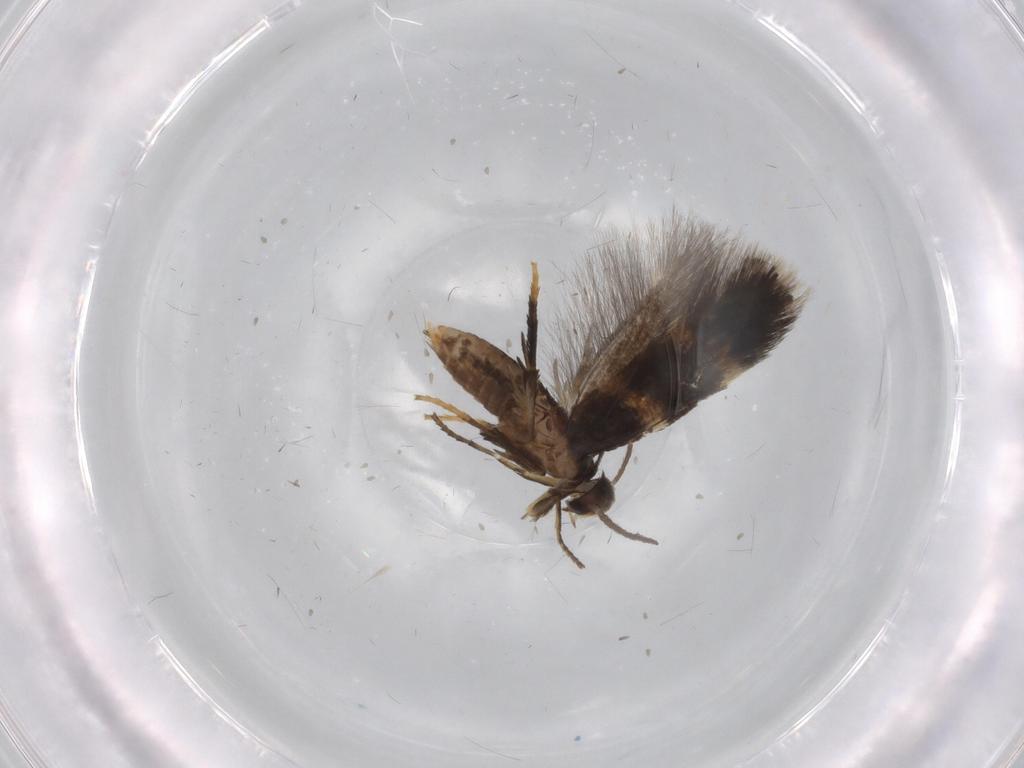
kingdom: Animalia
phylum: Arthropoda
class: Insecta
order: Lepidoptera
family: Heliozelidae
